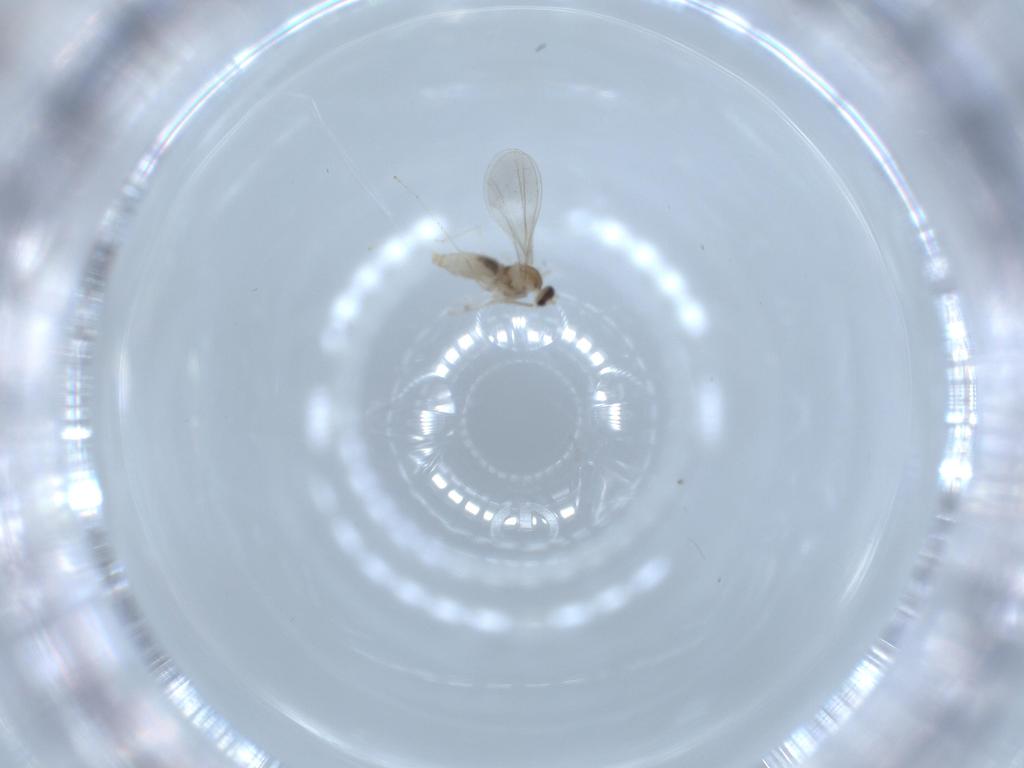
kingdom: Animalia
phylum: Arthropoda
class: Insecta
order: Diptera
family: Cecidomyiidae
